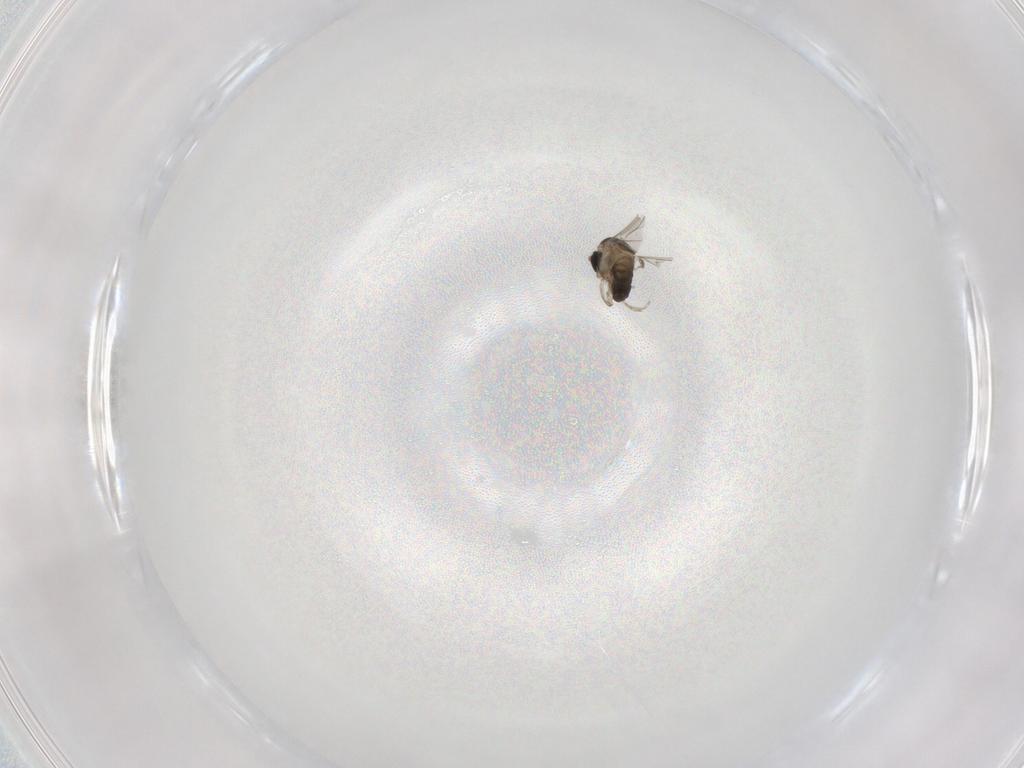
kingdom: Animalia
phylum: Arthropoda
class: Insecta
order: Diptera
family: Cecidomyiidae
